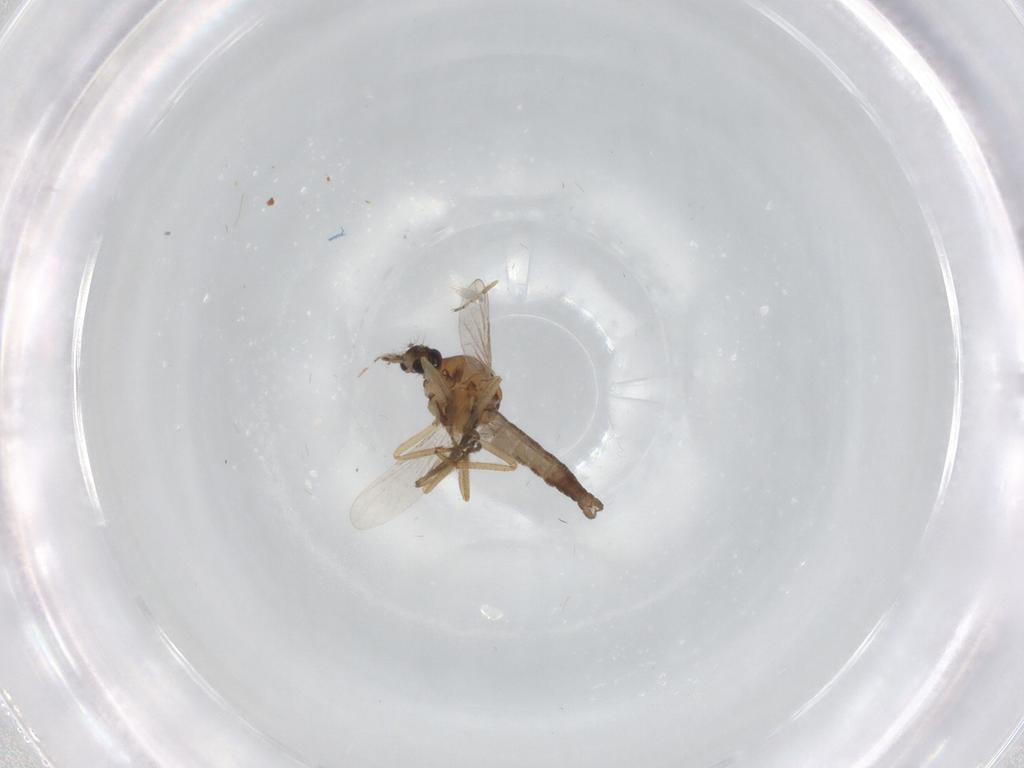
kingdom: Animalia
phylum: Arthropoda
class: Insecta
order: Diptera
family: Ceratopogonidae
